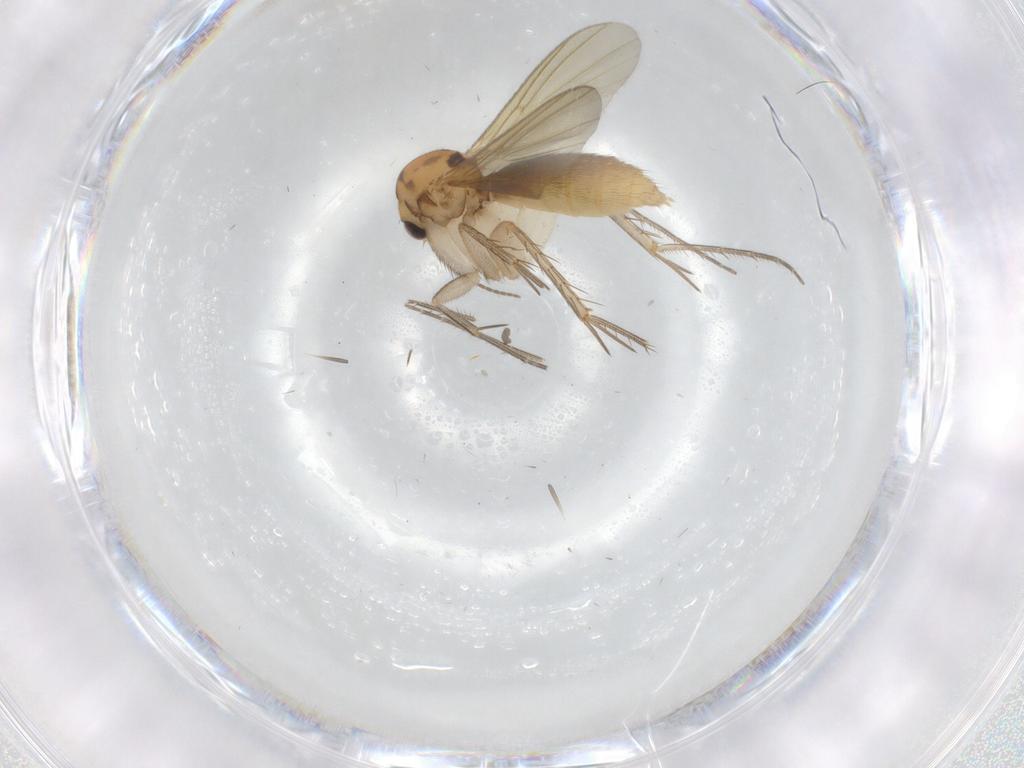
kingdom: Animalia
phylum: Arthropoda
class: Insecta
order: Diptera
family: Mycetophilidae
